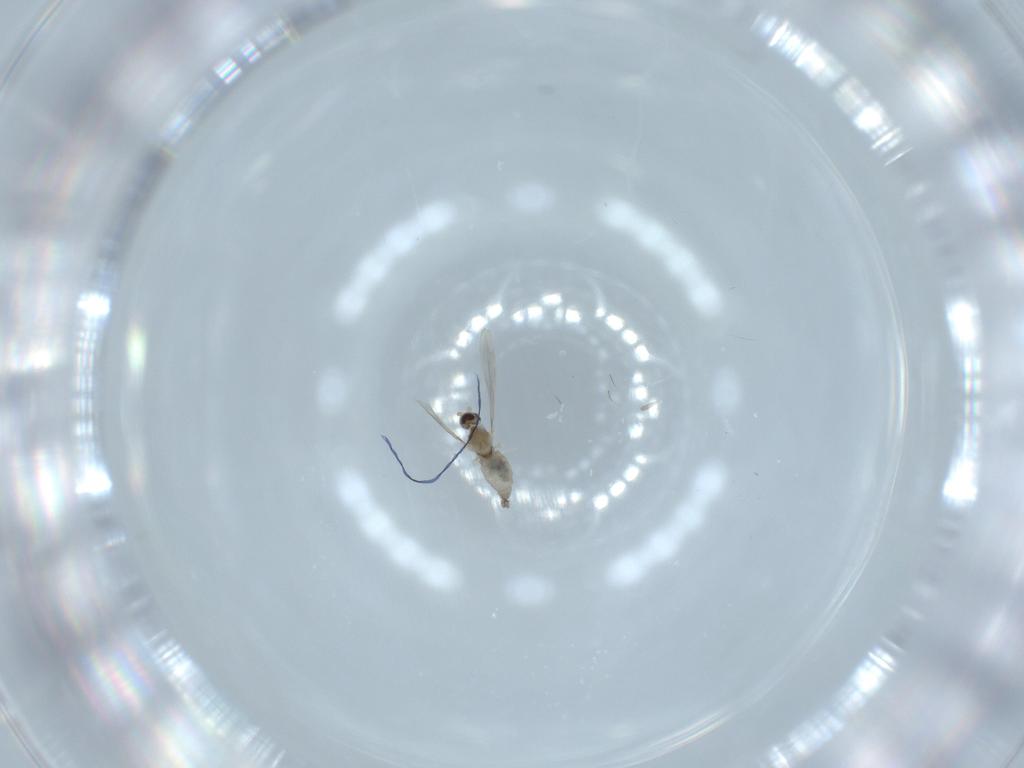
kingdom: Animalia
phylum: Arthropoda
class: Insecta
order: Diptera
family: Cecidomyiidae
